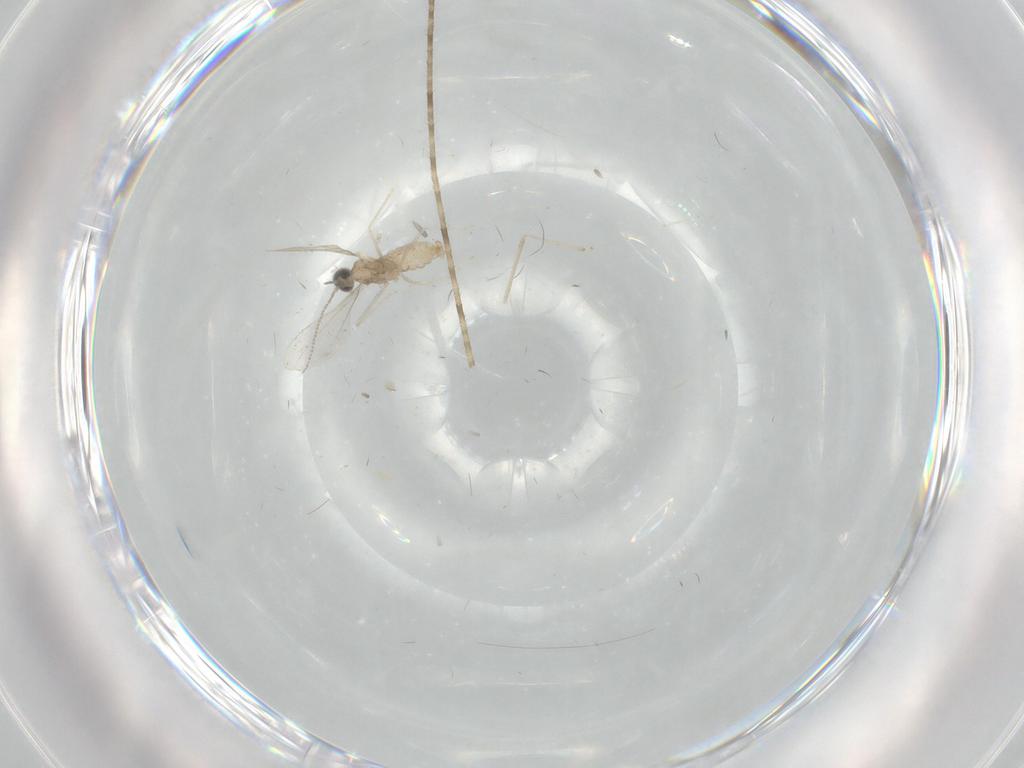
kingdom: Animalia
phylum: Arthropoda
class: Insecta
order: Diptera
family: Cecidomyiidae
